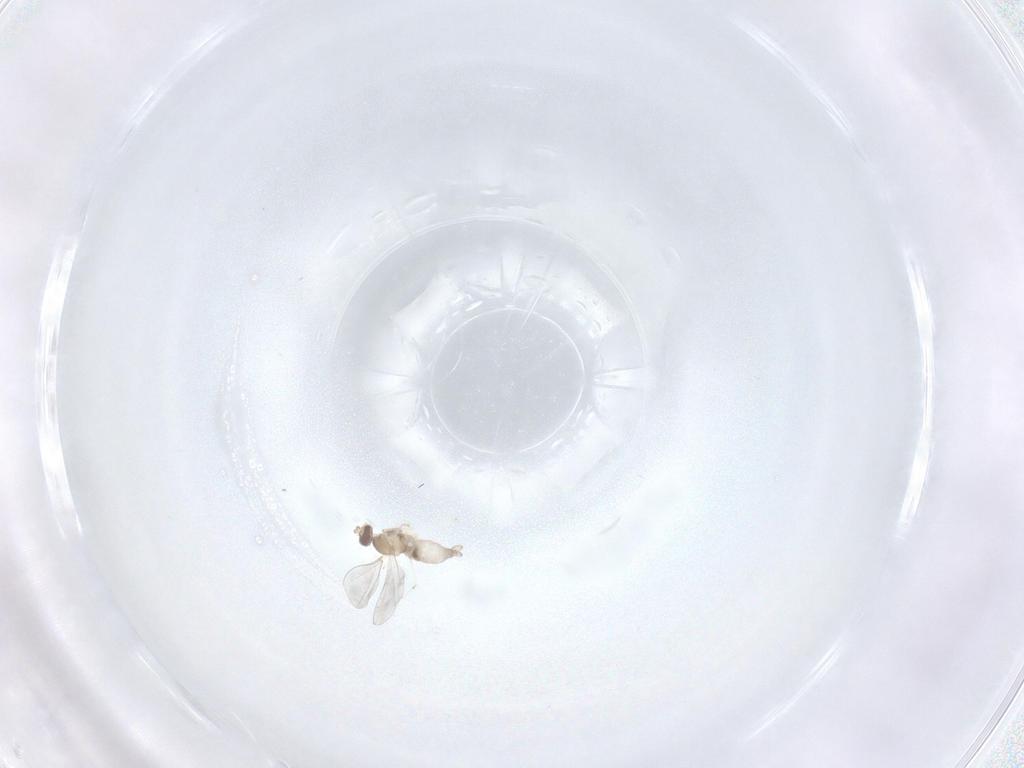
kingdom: Animalia
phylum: Arthropoda
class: Insecta
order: Diptera
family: Cecidomyiidae
